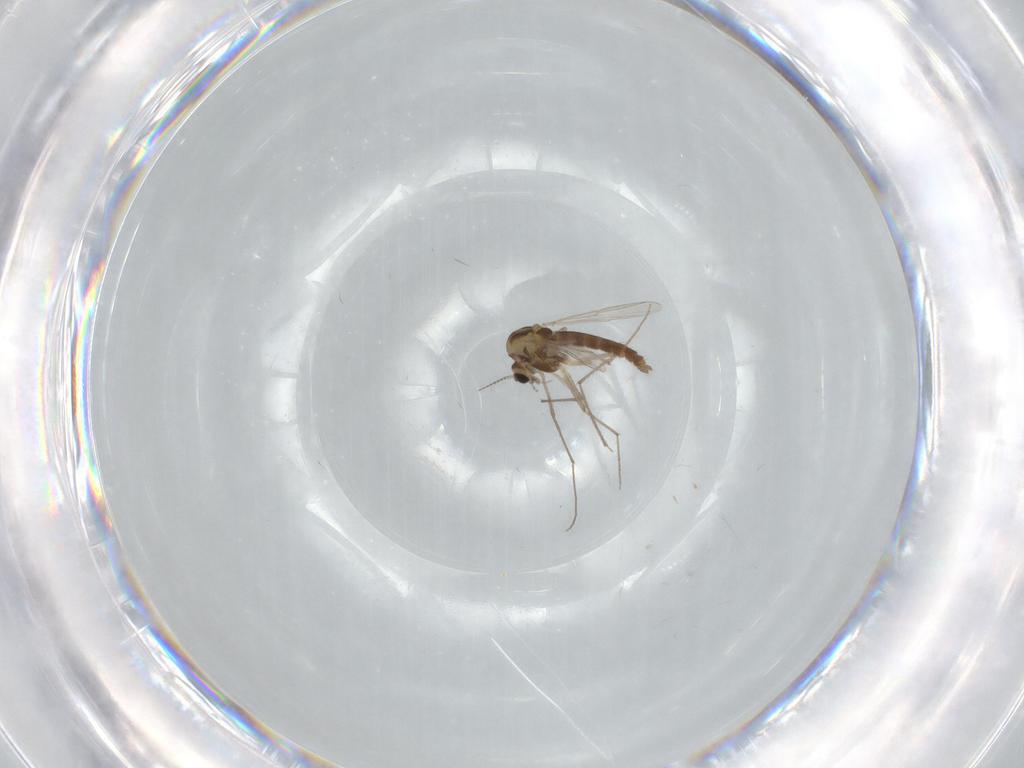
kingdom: Animalia
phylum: Arthropoda
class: Insecta
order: Diptera
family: Chironomidae
